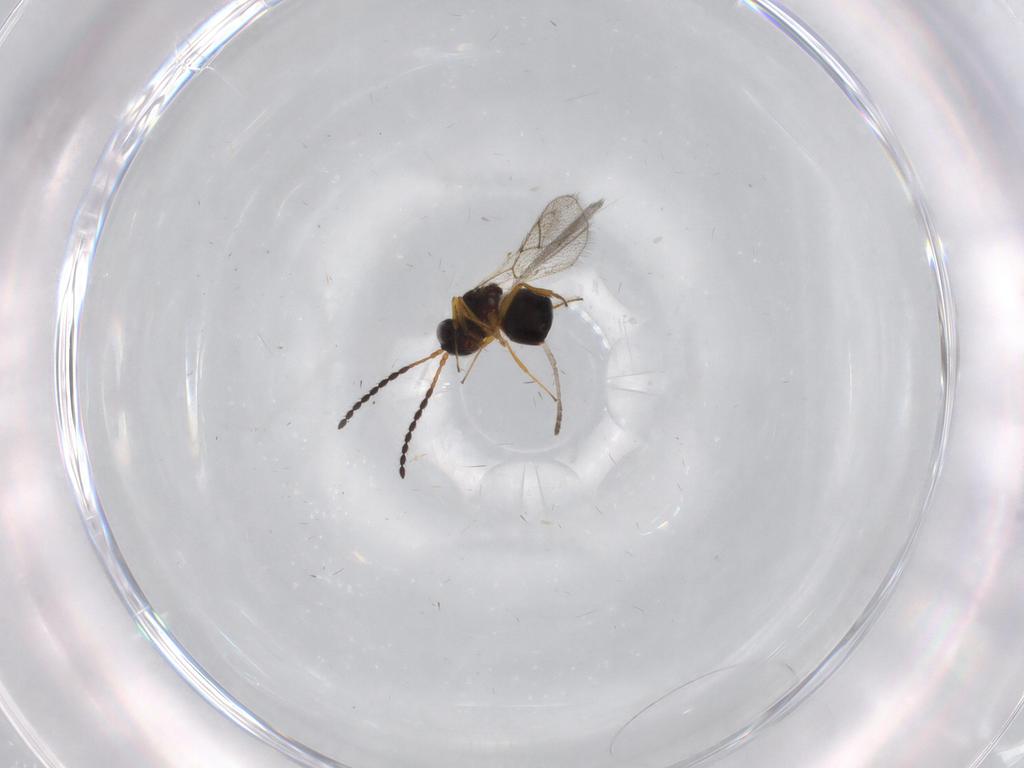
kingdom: Animalia
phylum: Arthropoda
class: Insecta
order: Hymenoptera
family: Figitidae
